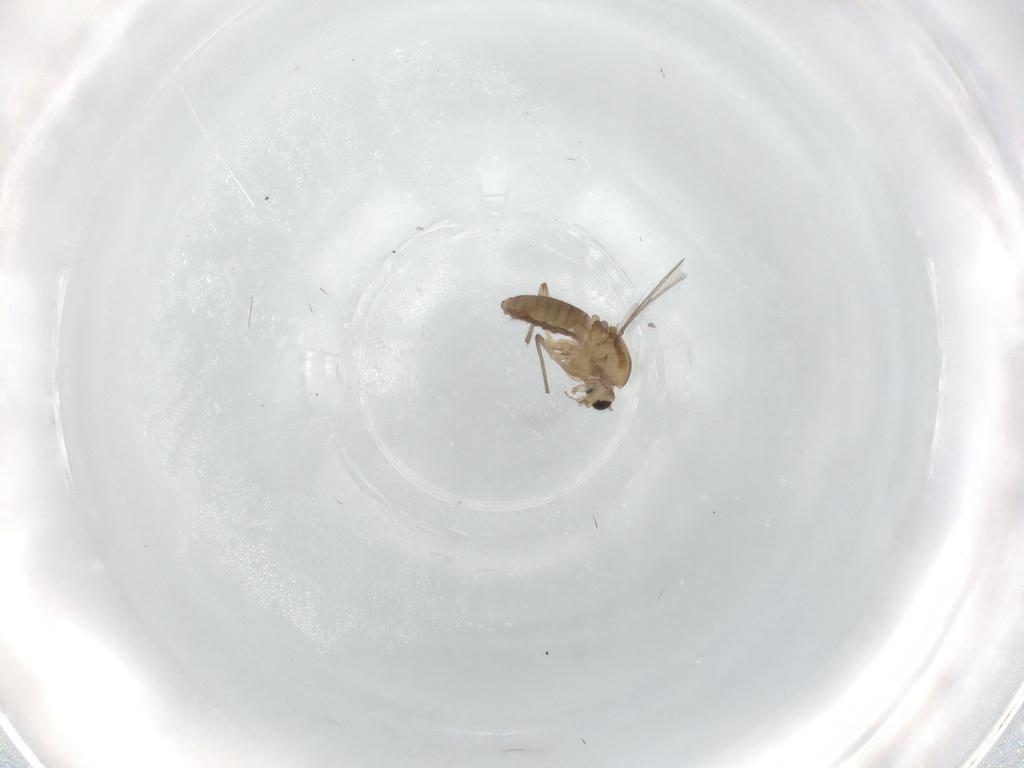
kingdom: Animalia
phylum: Arthropoda
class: Insecta
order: Diptera
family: Chironomidae
